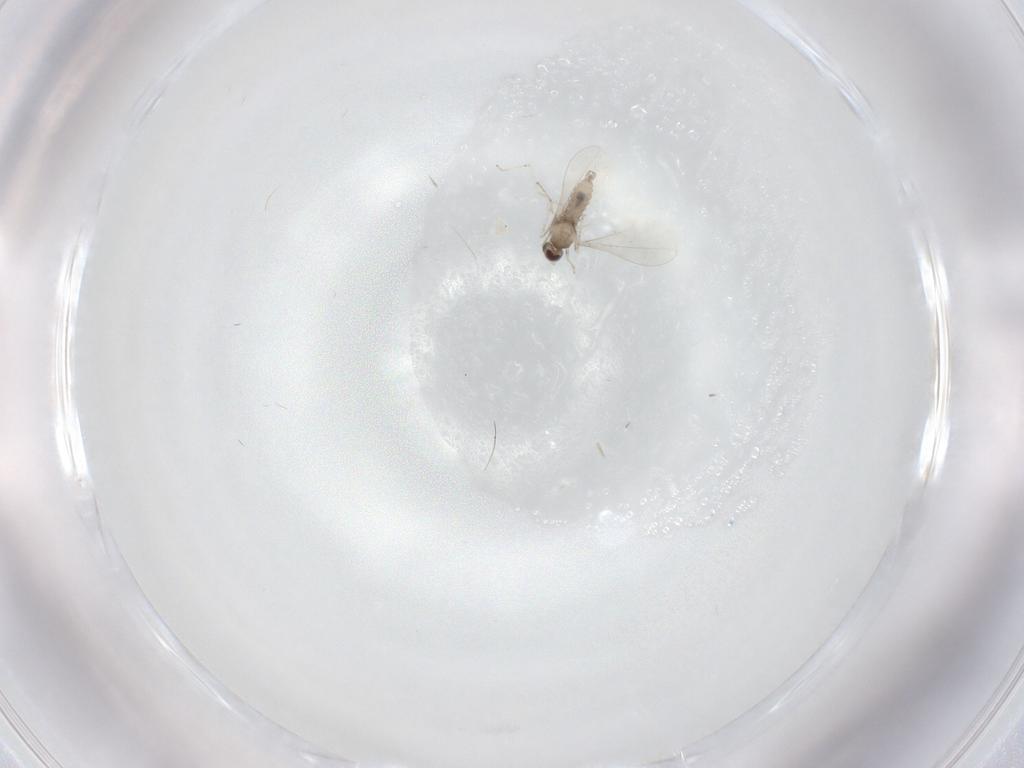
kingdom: Animalia
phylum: Arthropoda
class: Insecta
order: Diptera
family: Cecidomyiidae
